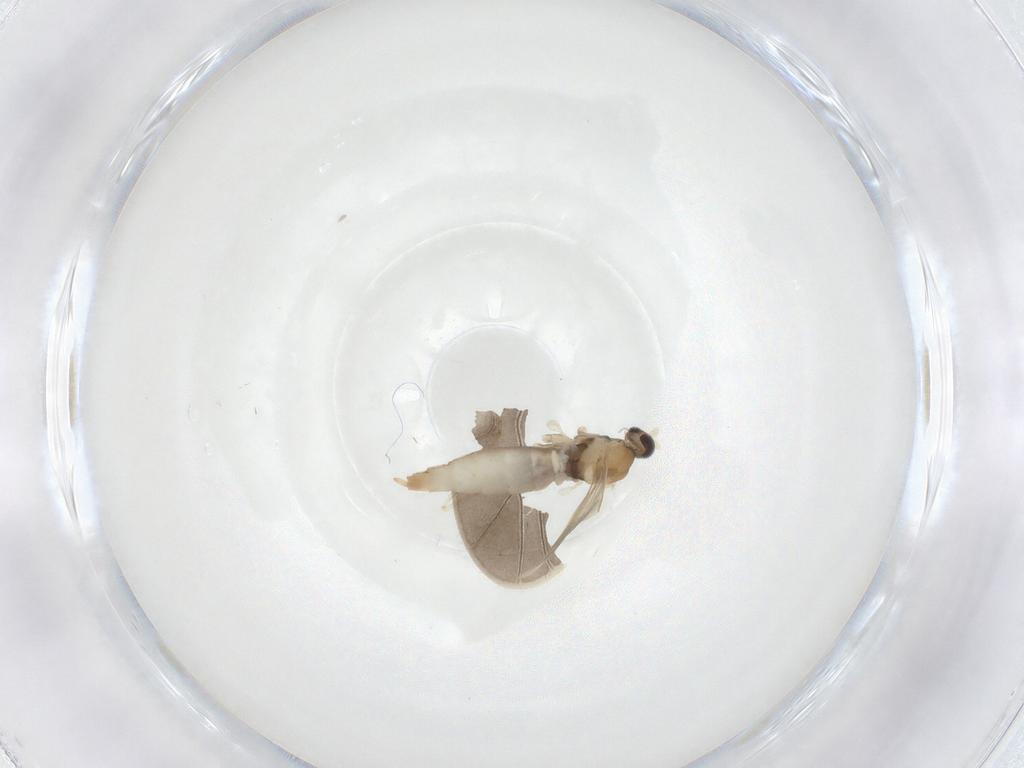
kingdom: Animalia
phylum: Arthropoda
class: Insecta
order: Diptera
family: Cecidomyiidae
